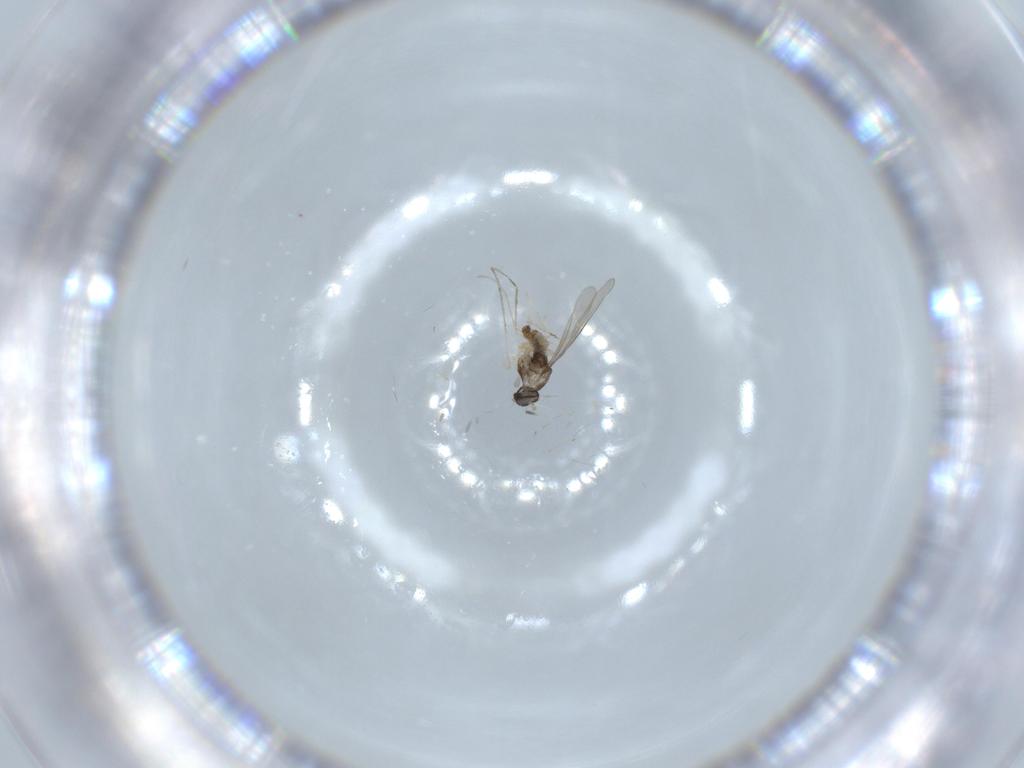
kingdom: Animalia
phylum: Arthropoda
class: Insecta
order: Diptera
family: Cecidomyiidae
